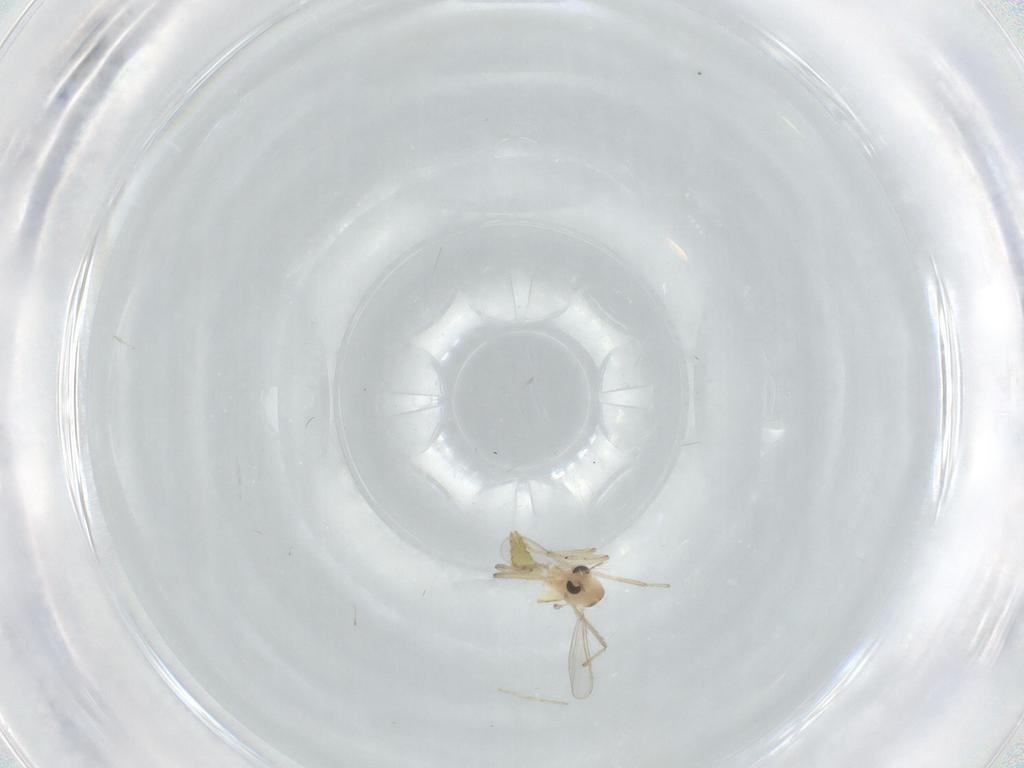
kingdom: Animalia
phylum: Arthropoda
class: Insecta
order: Diptera
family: Chironomidae
